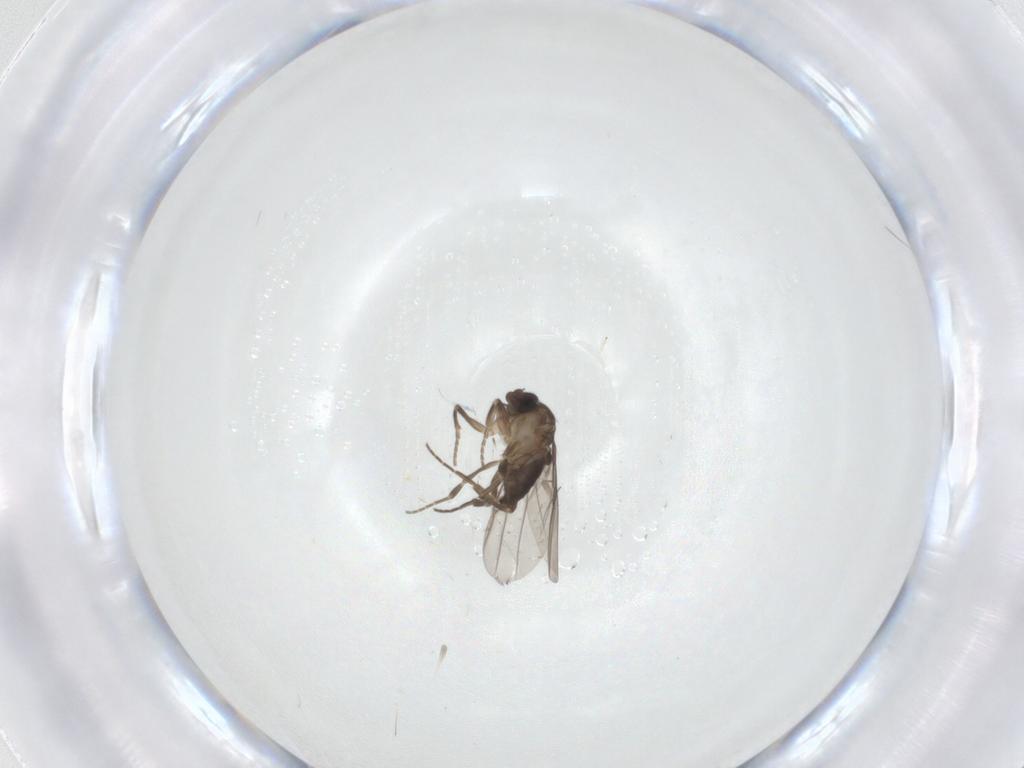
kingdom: Animalia
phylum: Arthropoda
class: Insecta
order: Diptera
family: Sphaeroceridae
